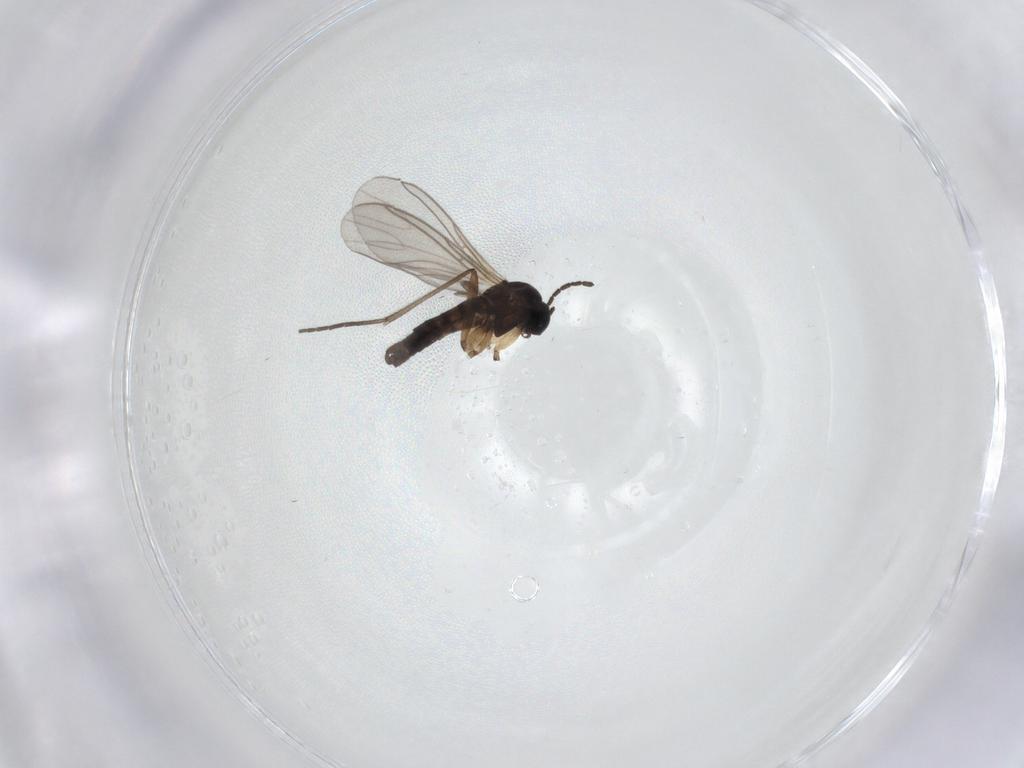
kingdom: Animalia
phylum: Arthropoda
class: Insecta
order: Diptera
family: Sciaridae
